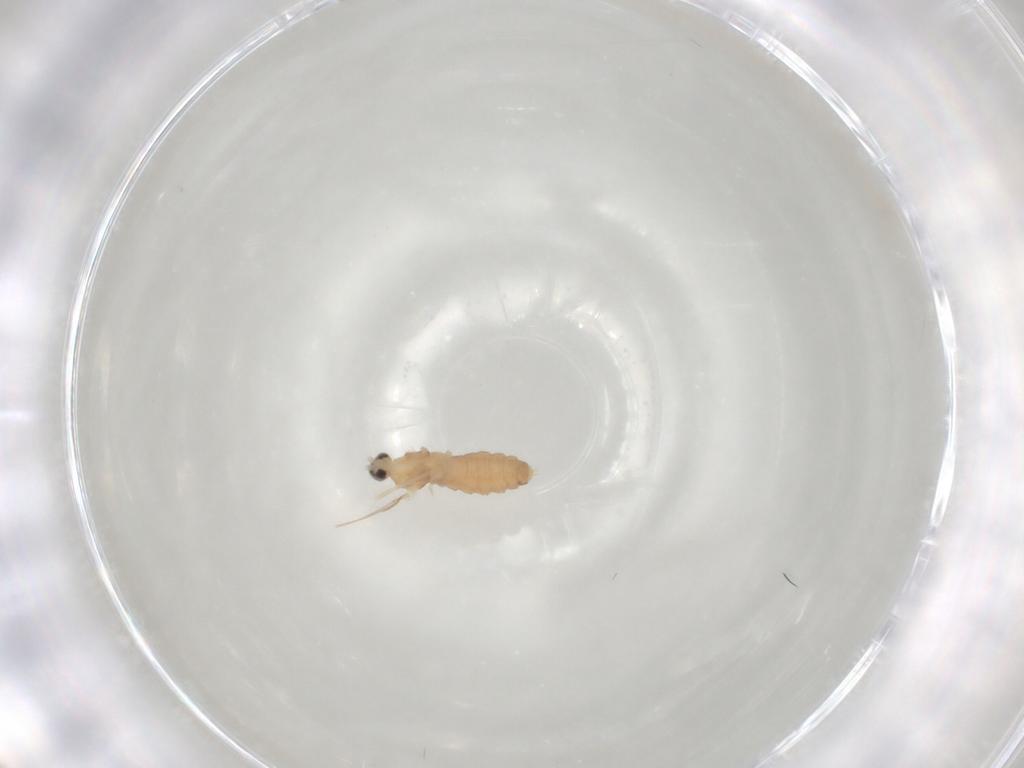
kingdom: Animalia
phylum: Arthropoda
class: Insecta
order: Diptera
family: Cecidomyiidae
